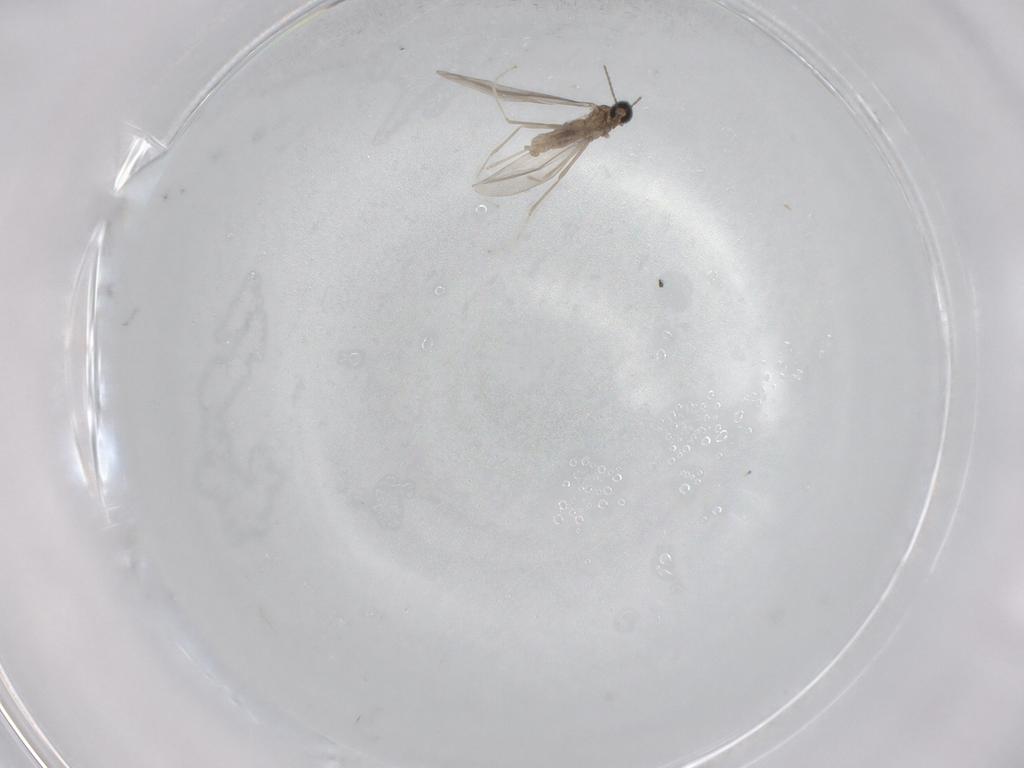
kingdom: Animalia
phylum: Arthropoda
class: Insecta
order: Diptera
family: Cecidomyiidae
